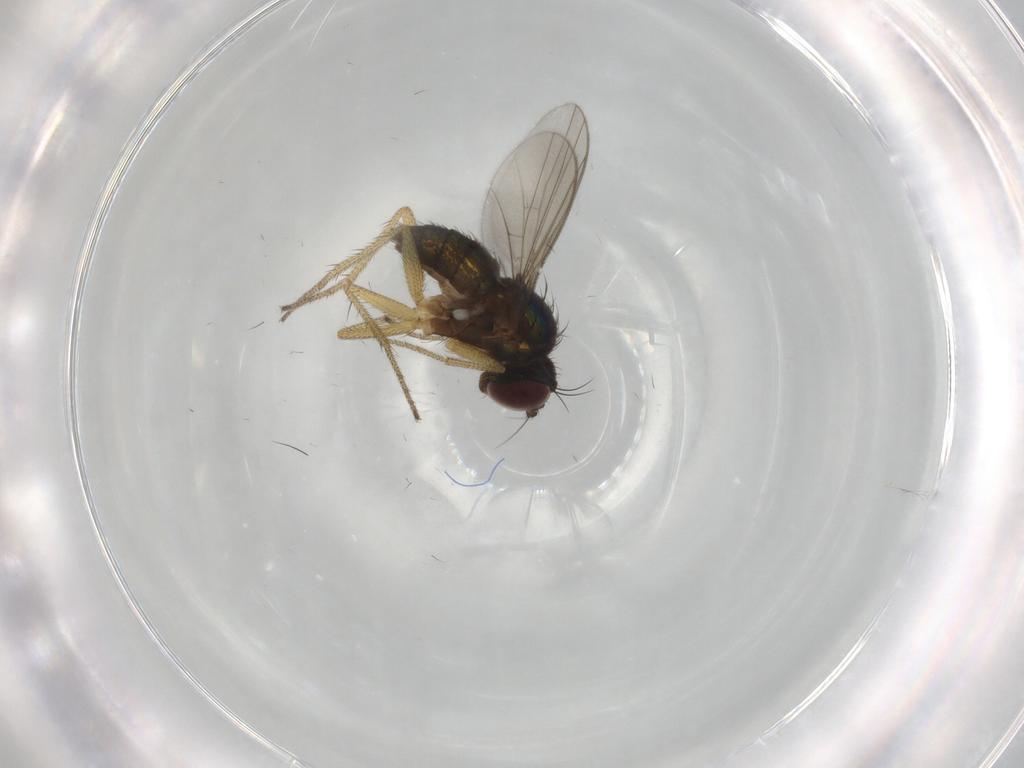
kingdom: Animalia
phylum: Arthropoda
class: Insecta
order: Diptera
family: Dolichopodidae
